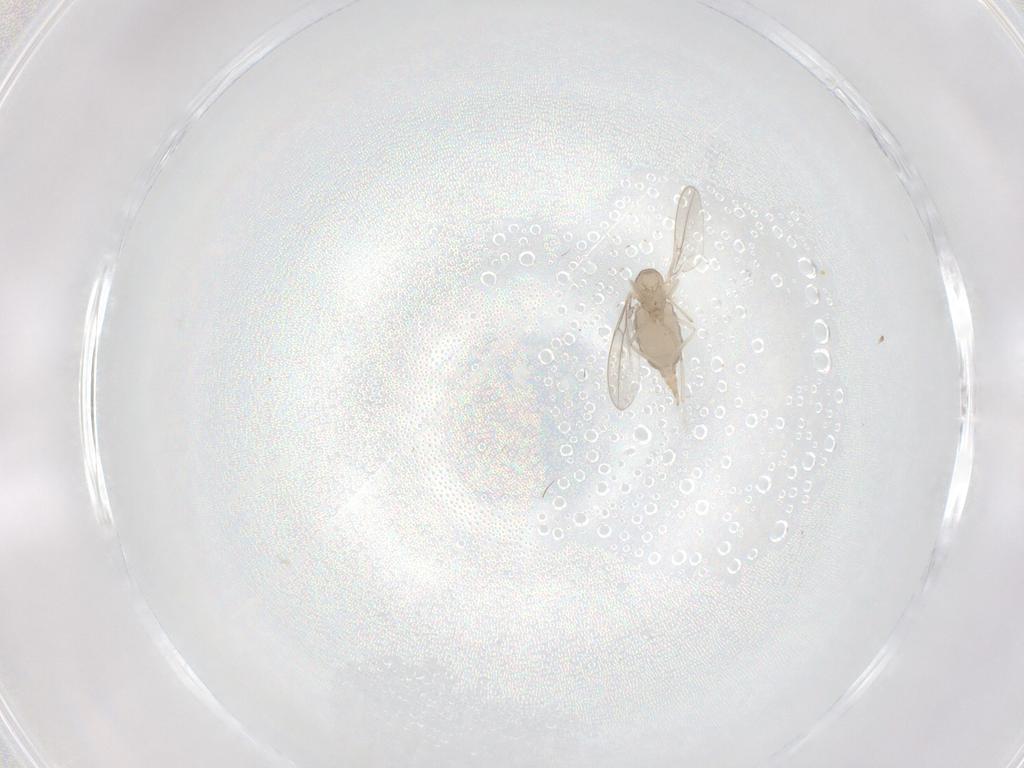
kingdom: Animalia
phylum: Arthropoda
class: Insecta
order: Diptera
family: Cecidomyiidae
